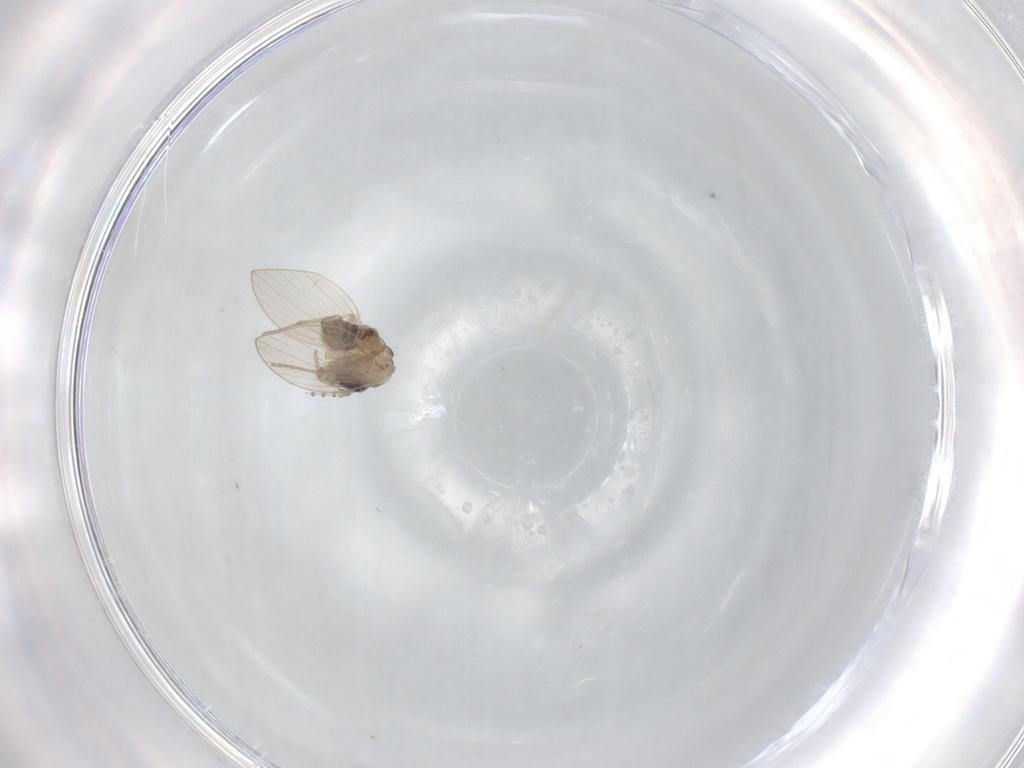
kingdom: Animalia
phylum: Arthropoda
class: Insecta
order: Diptera
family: Psychodidae
